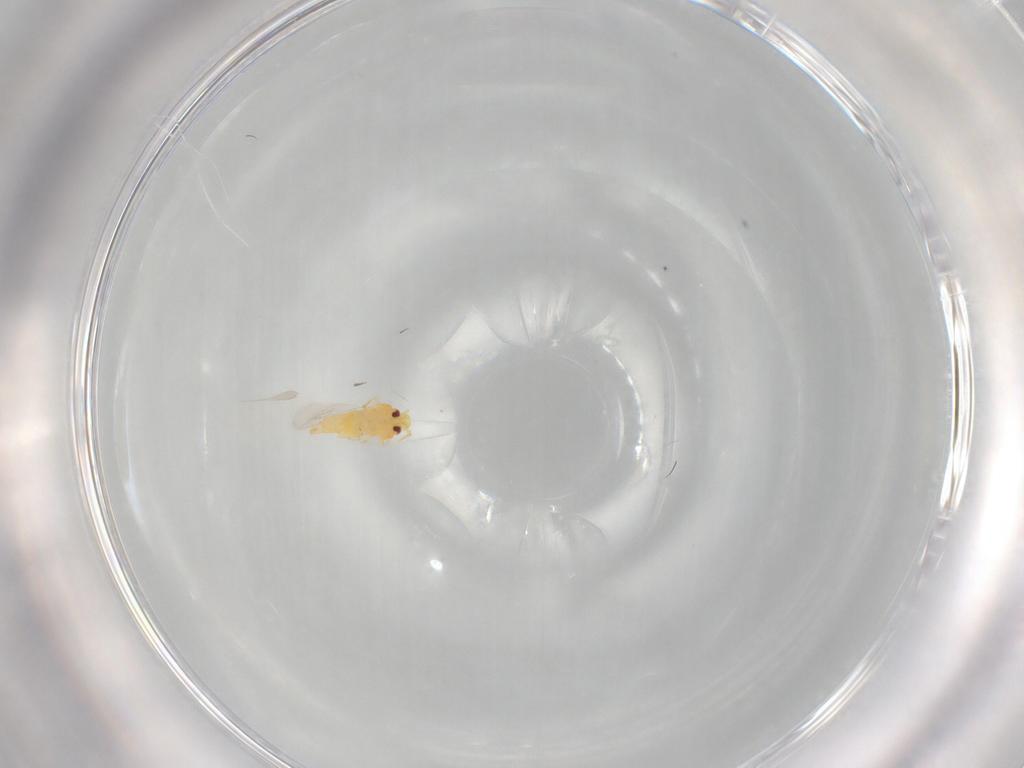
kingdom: Animalia
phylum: Arthropoda
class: Insecta
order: Hemiptera
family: Aleyrodidae
